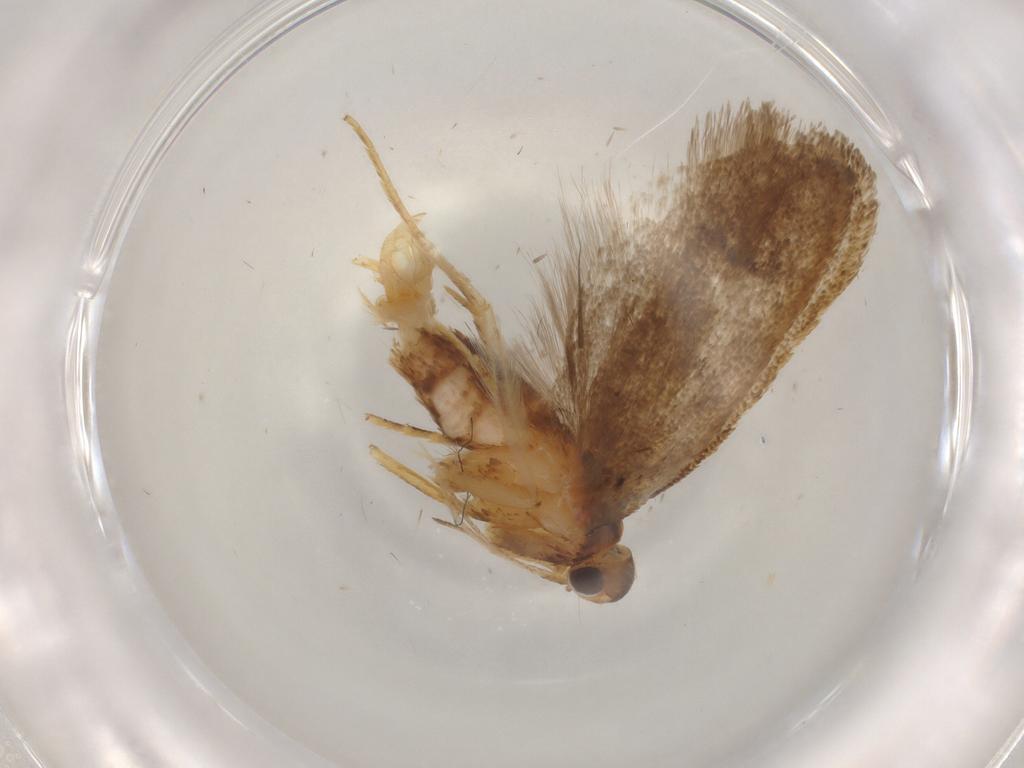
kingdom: Animalia
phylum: Arthropoda
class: Insecta
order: Lepidoptera
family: Lecithoceridae
